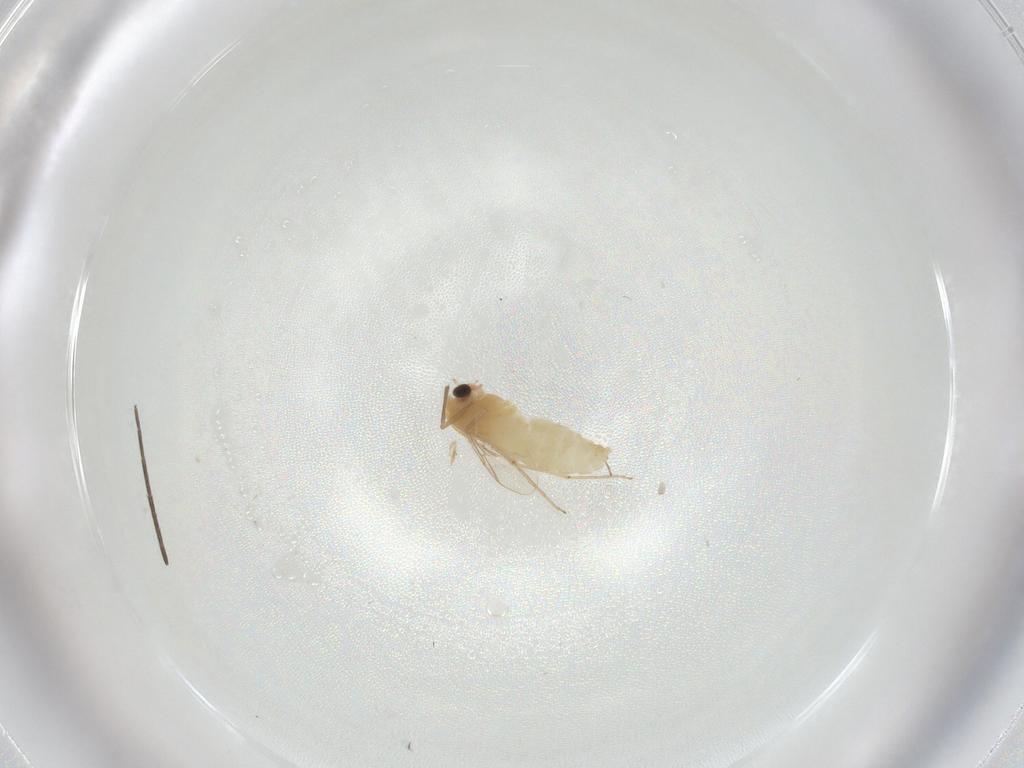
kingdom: Animalia
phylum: Arthropoda
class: Insecta
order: Diptera
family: Chironomidae
